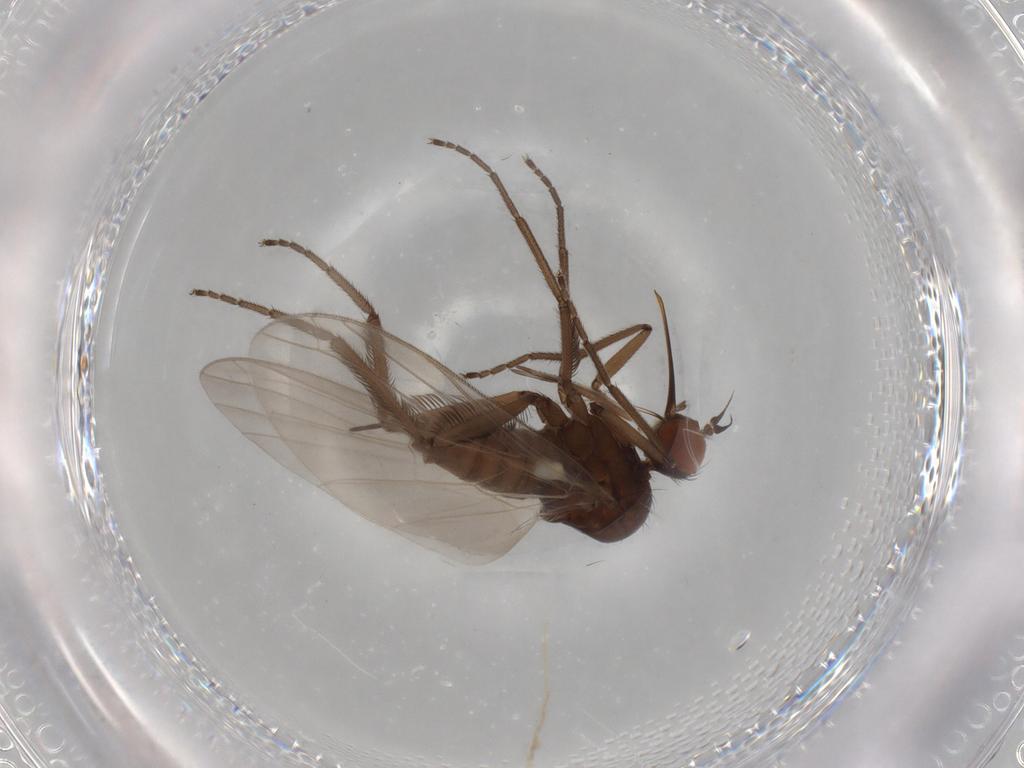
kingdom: Animalia
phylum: Arthropoda
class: Insecta
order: Diptera
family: Empididae
